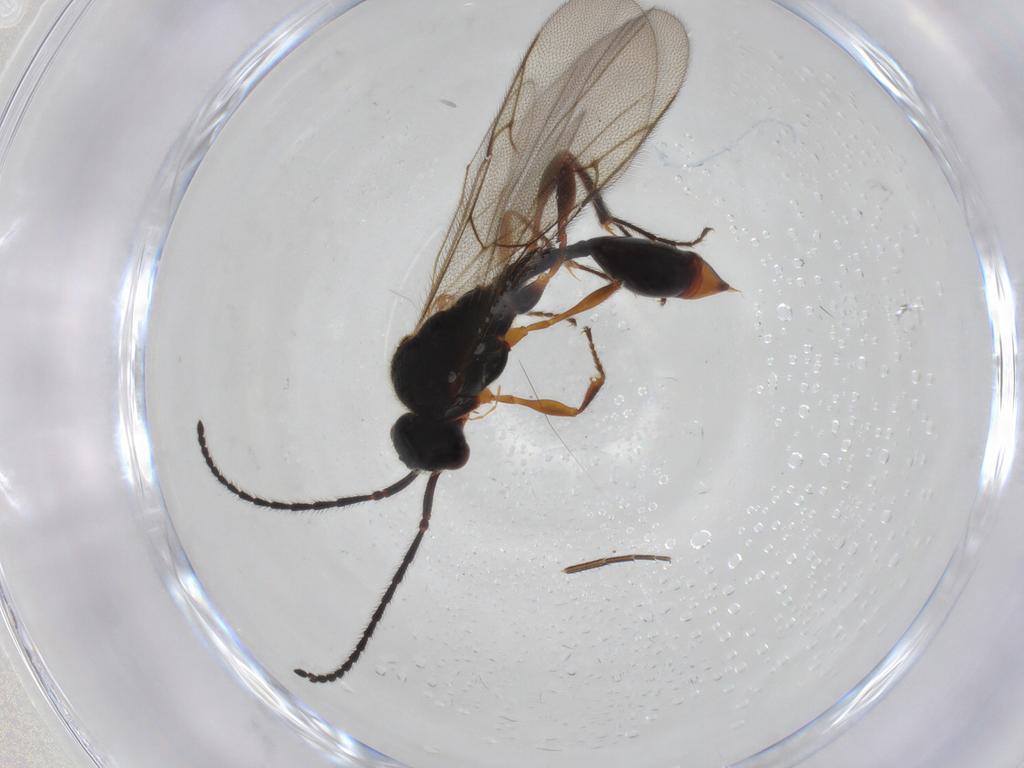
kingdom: Animalia
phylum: Arthropoda
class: Insecta
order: Hymenoptera
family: Diapriidae
